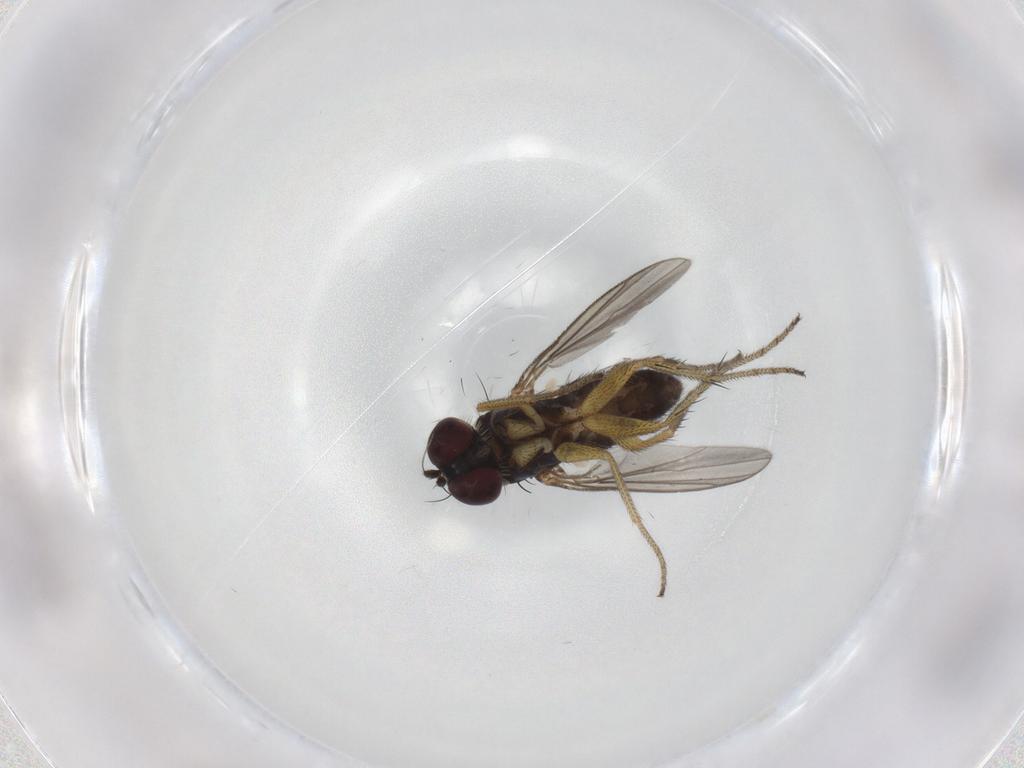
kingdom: Animalia
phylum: Arthropoda
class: Insecta
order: Diptera
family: Chironomidae
